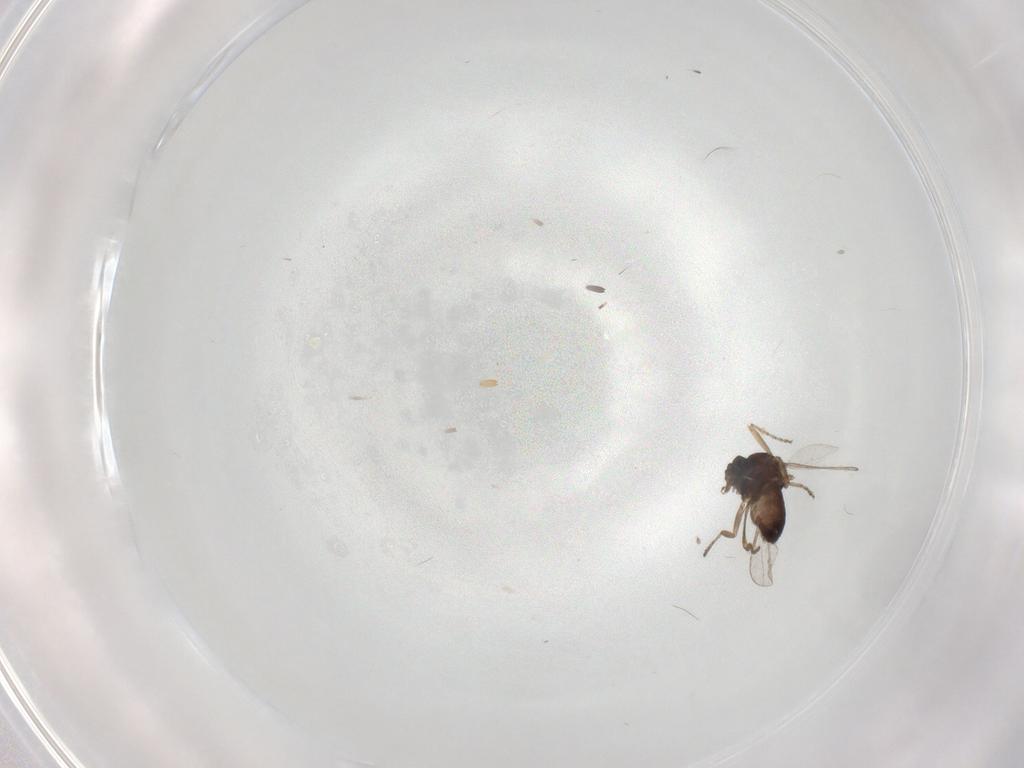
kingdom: Animalia
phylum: Arthropoda
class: Insecta
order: Diptera
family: Ceratopogonidae
